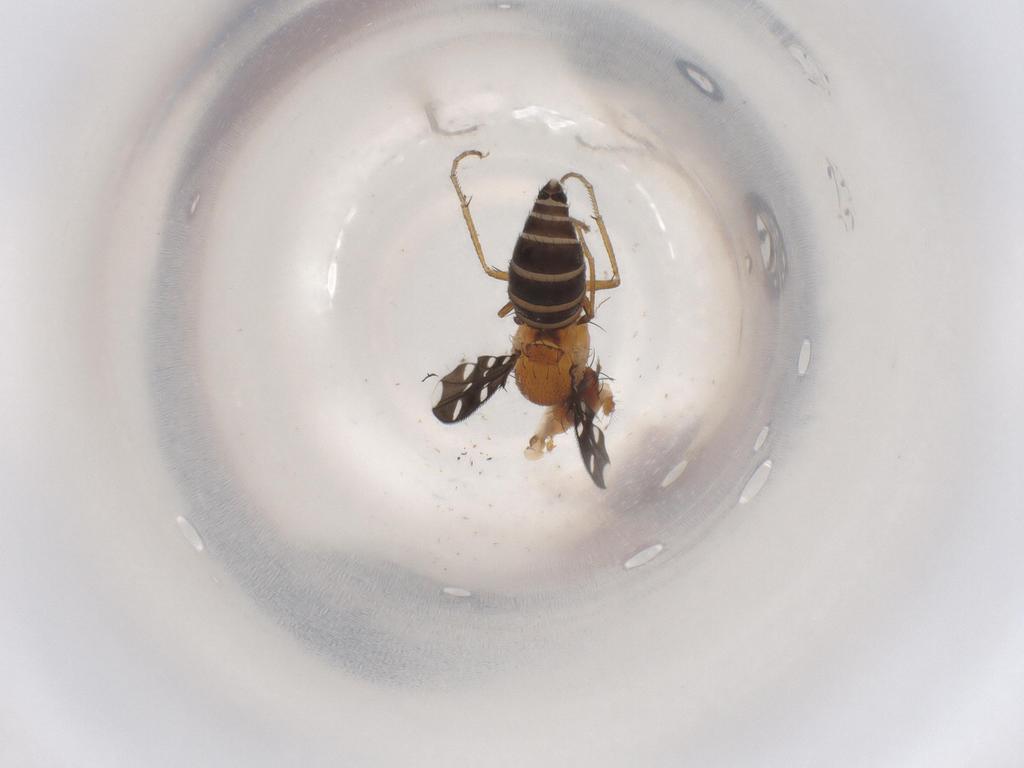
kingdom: Animalia
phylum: Arthropoda
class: Insecta
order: Diptera
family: Ephydridae
